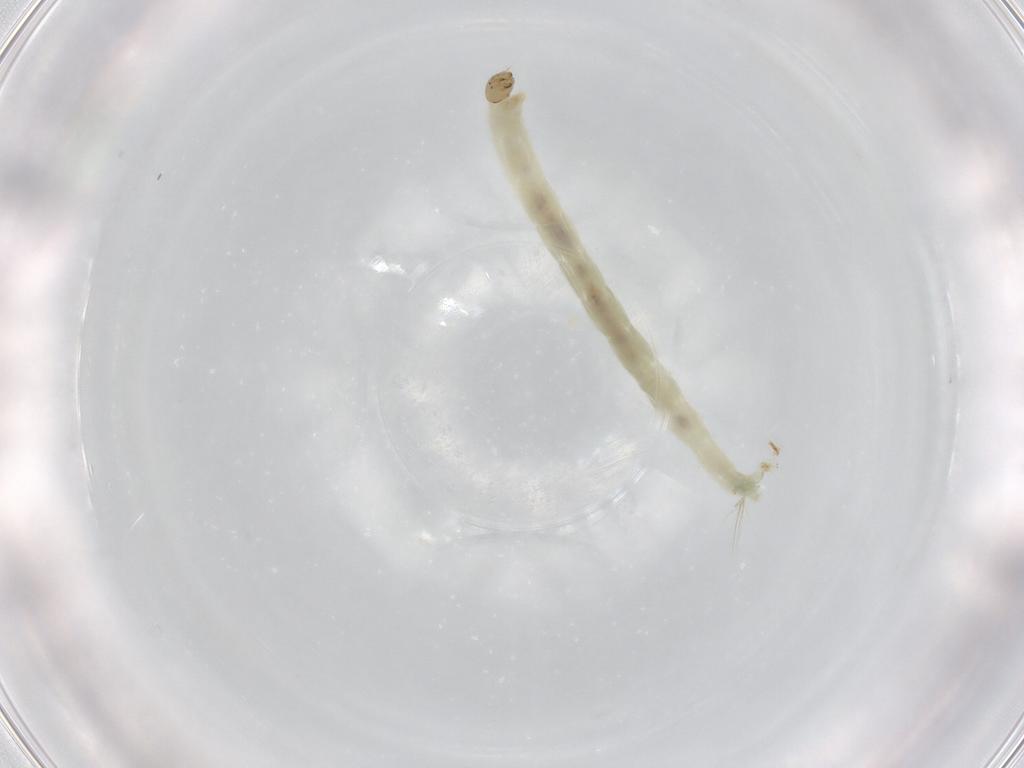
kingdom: Animalia
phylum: Arthropoda
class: Insecta
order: Diptera
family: Chironomidae
